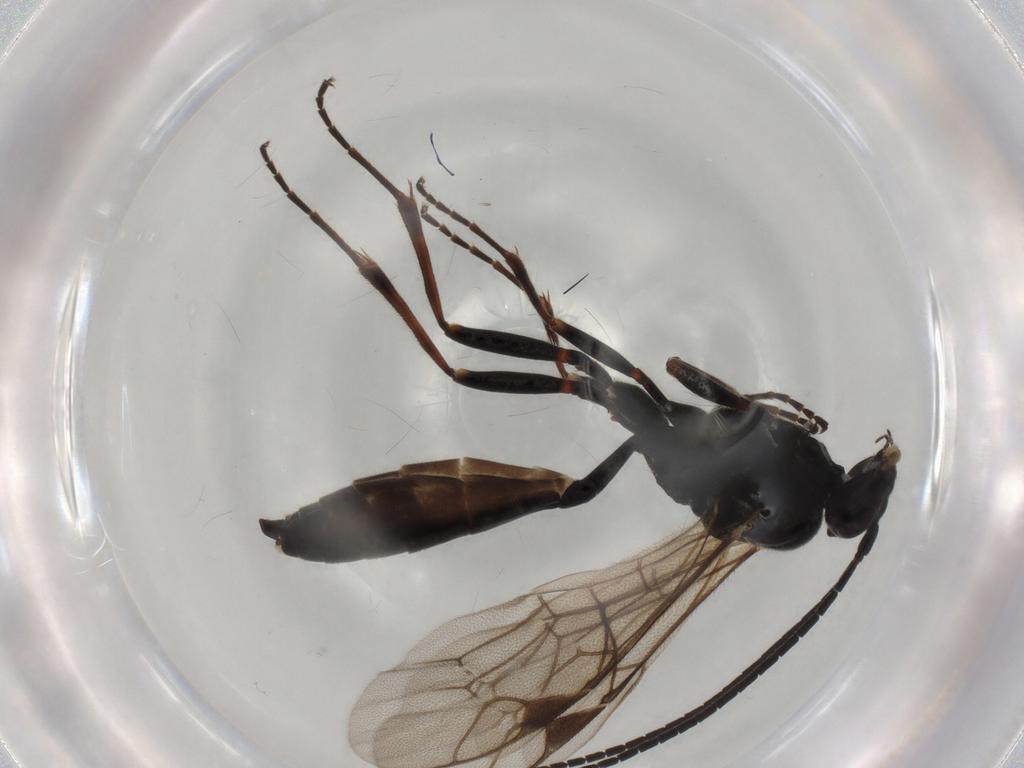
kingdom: Animalia
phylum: Arthropoda
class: Insecta
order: Hymenoptera
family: Ichneumonidae
